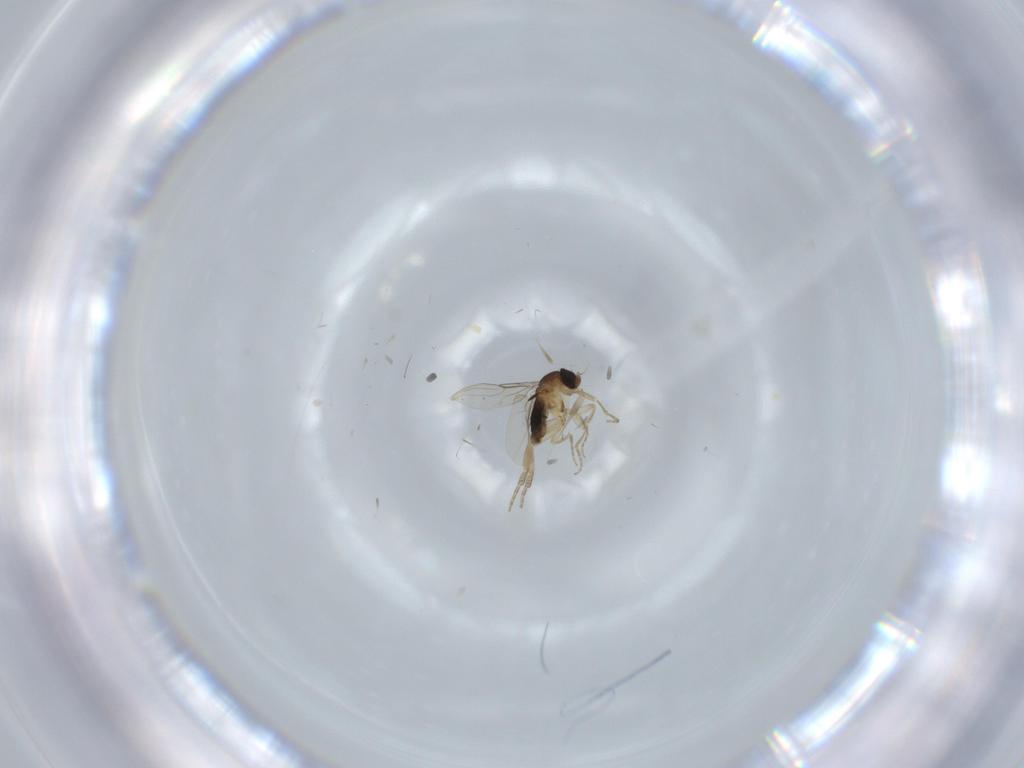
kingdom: Animalia
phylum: Arthropoda
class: Insecta
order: Diptera
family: Phoridae
